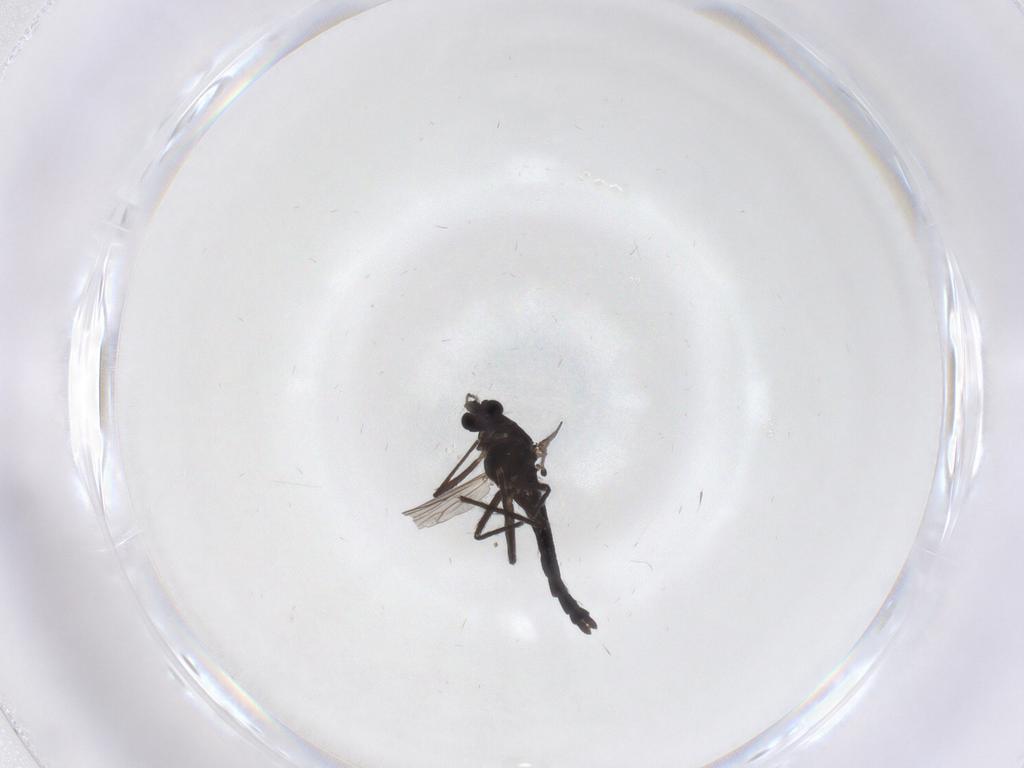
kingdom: Animalia
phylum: Arthropoda
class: Insecta
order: Diptera
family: Chironomidae
